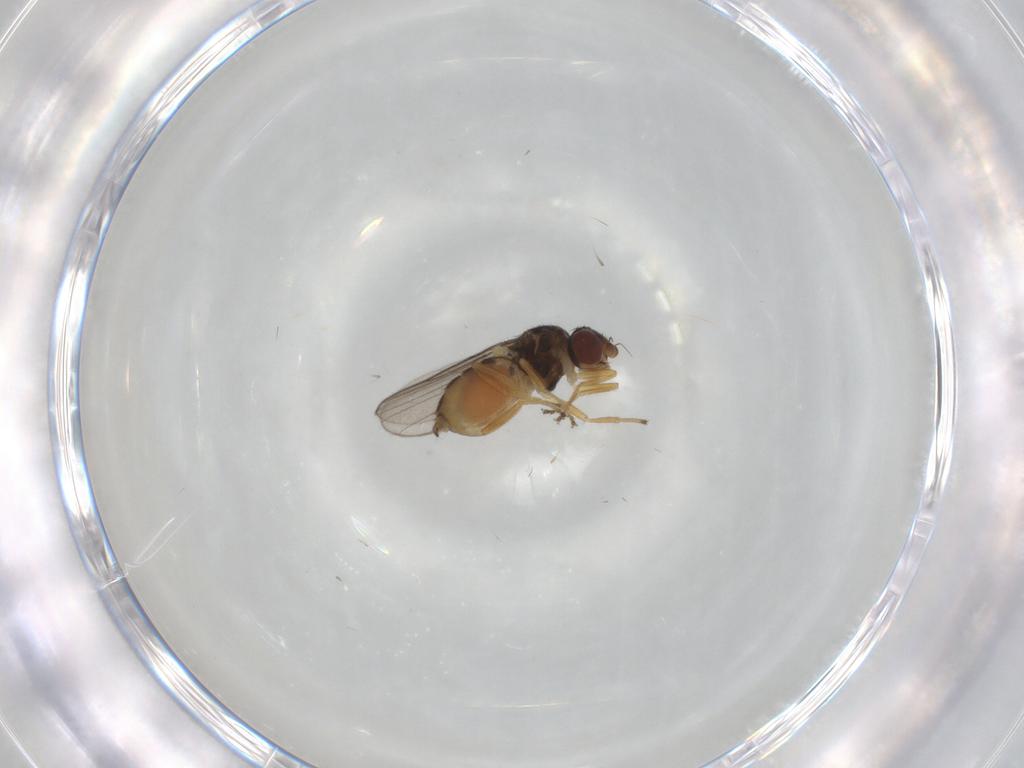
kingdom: Animalia
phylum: Arthropoda
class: Insecta
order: Diptera
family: Chloropidae
